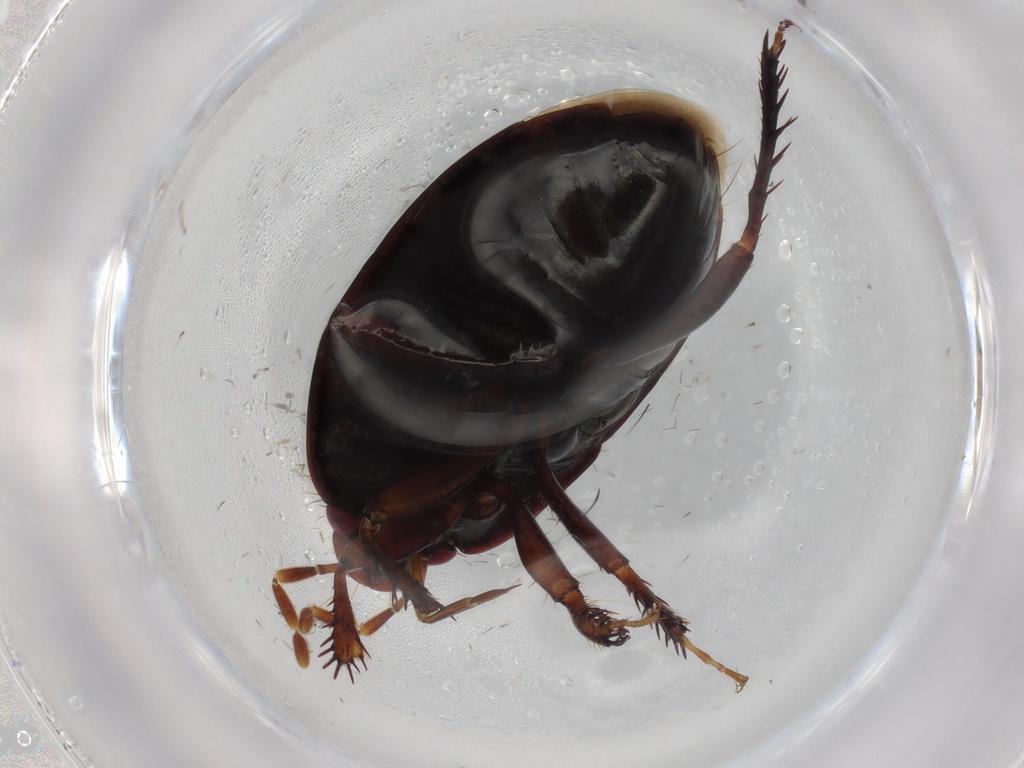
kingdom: Animalia
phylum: Arthropoda
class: Insecta
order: Hemiptera
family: Cydnidae
